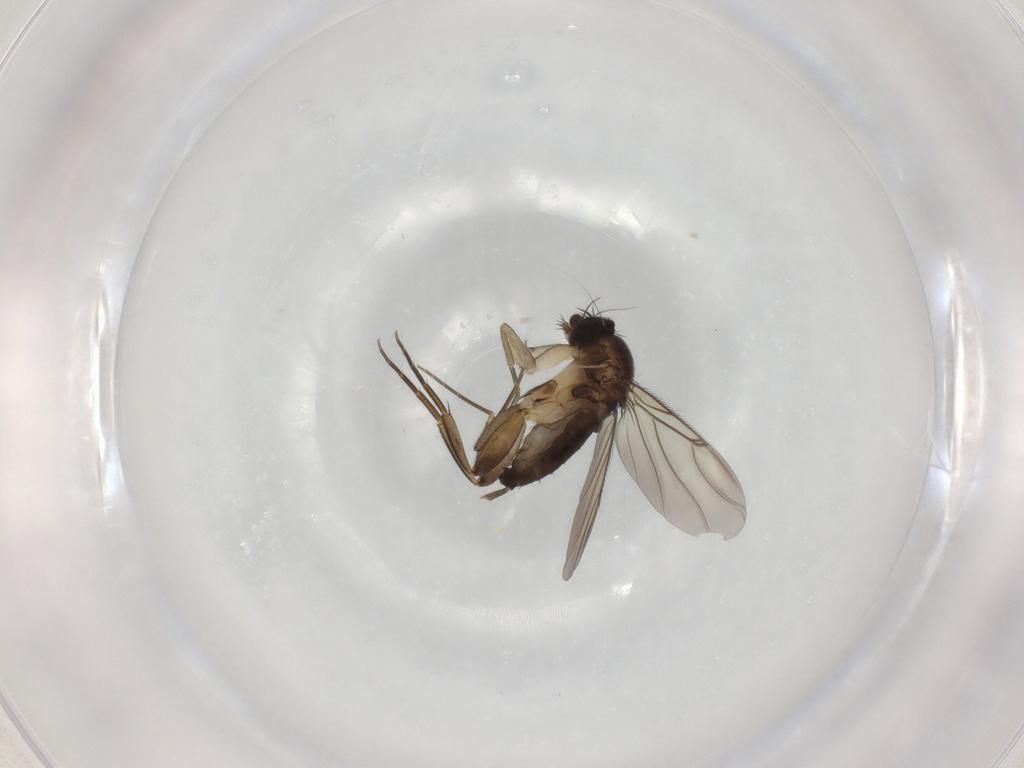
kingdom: Animalia
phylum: Arthropoda
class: Insecta
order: Diptera
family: Phoridae
